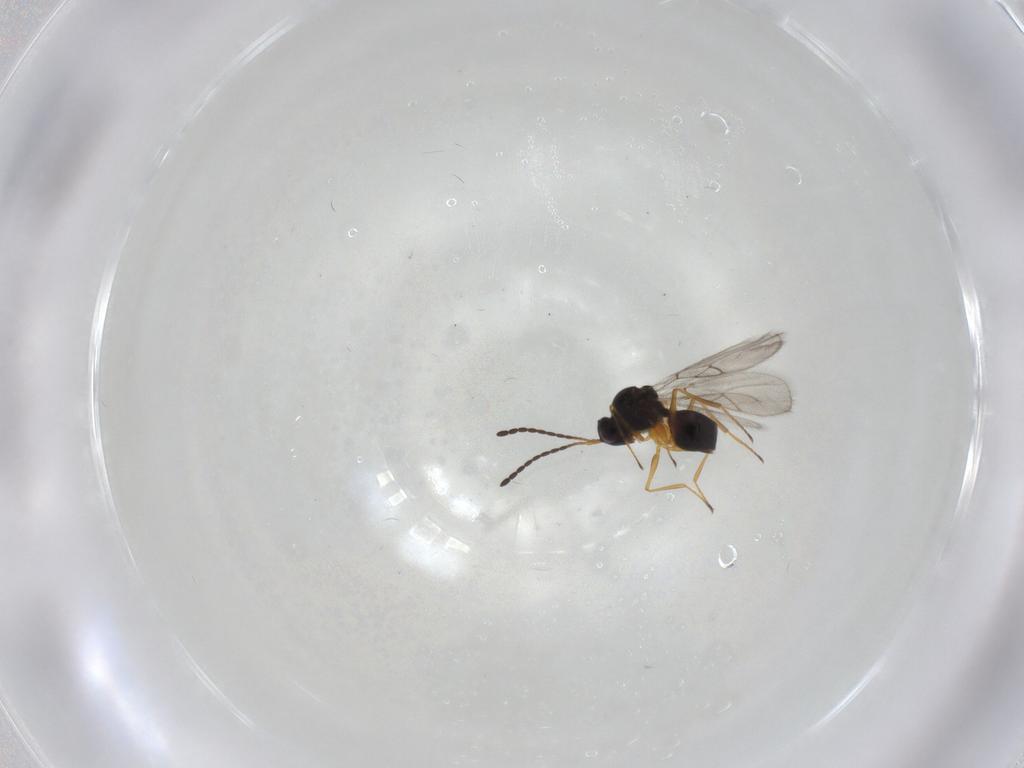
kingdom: Animalia
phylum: Arthropoda
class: Insecta
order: Hymenoptera
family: Figitidae
